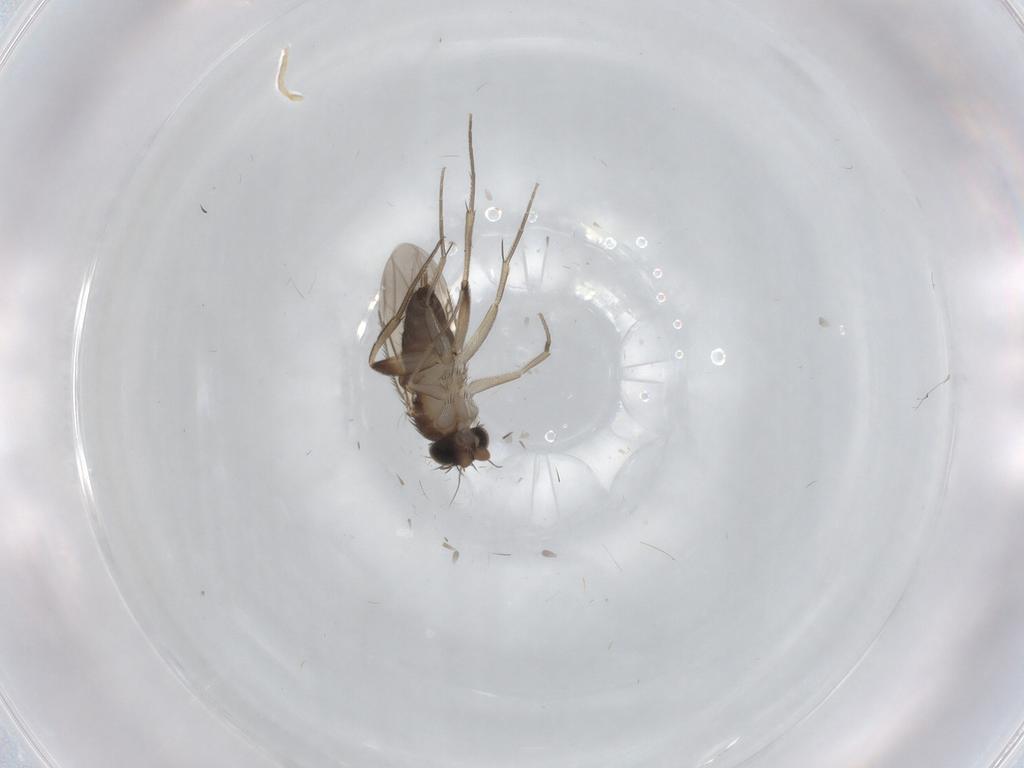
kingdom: Animalia
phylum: Arthropoda
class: Insecta
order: Diptera
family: Phoridae
